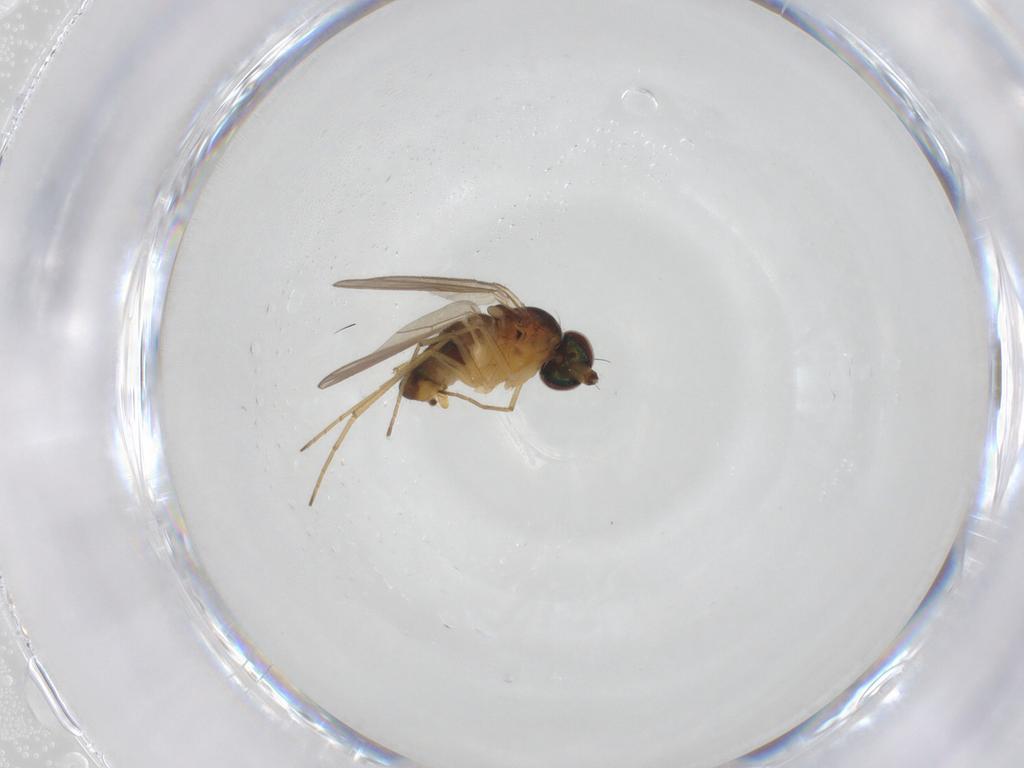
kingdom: Animalia
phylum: Arthropoda
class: Insecta
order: Diptera
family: Dolichopodidae
